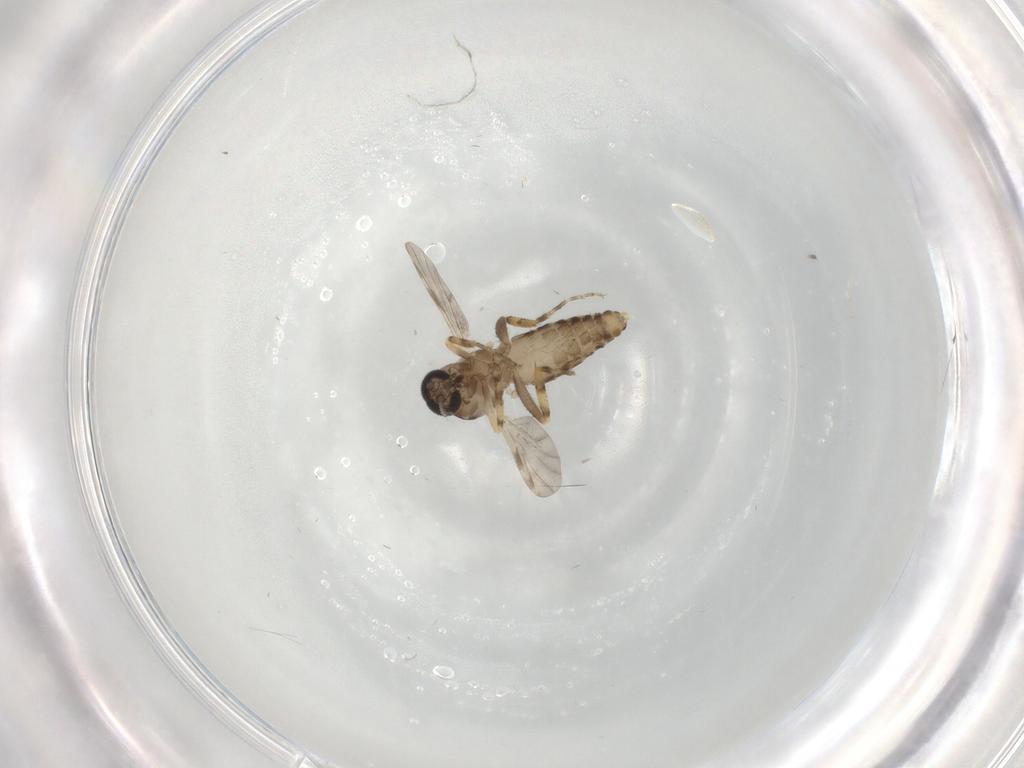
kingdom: Animalia
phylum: Arthropoda
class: Insecta
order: Diptera
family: Ceratopogonidae
